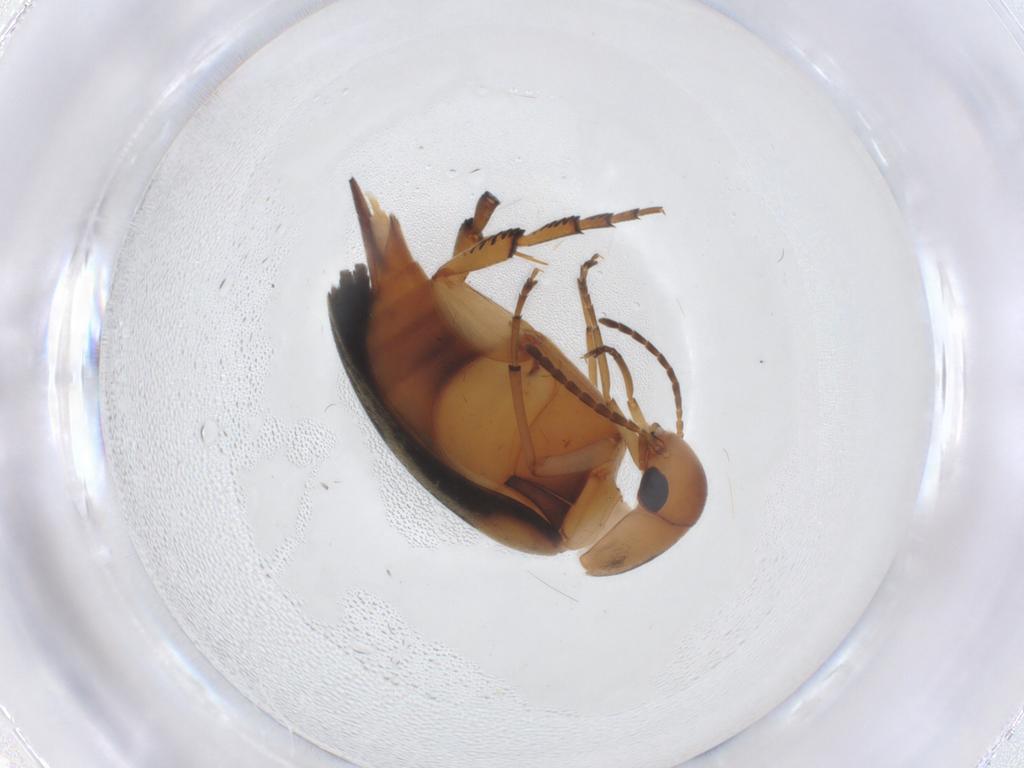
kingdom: Animalia
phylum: Arthropoda
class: Insecta
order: Coleoptera
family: Mordellidae
